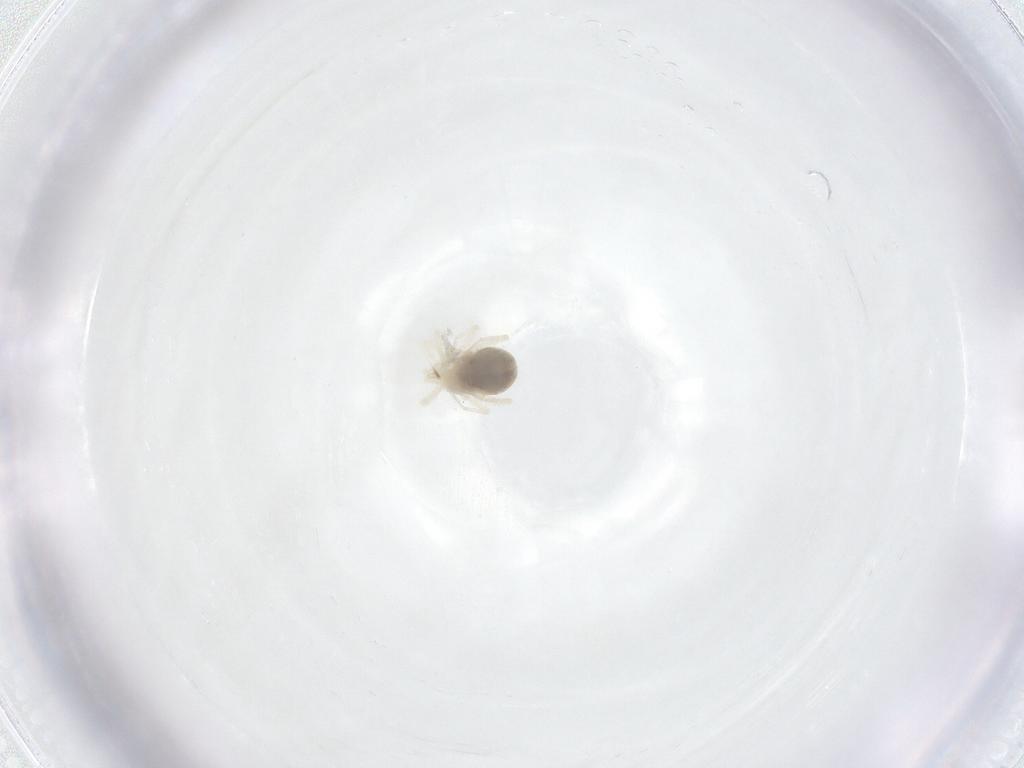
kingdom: Animalia
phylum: Arthropoda
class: Arachnida
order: Trombidiformes
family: Anystidae
